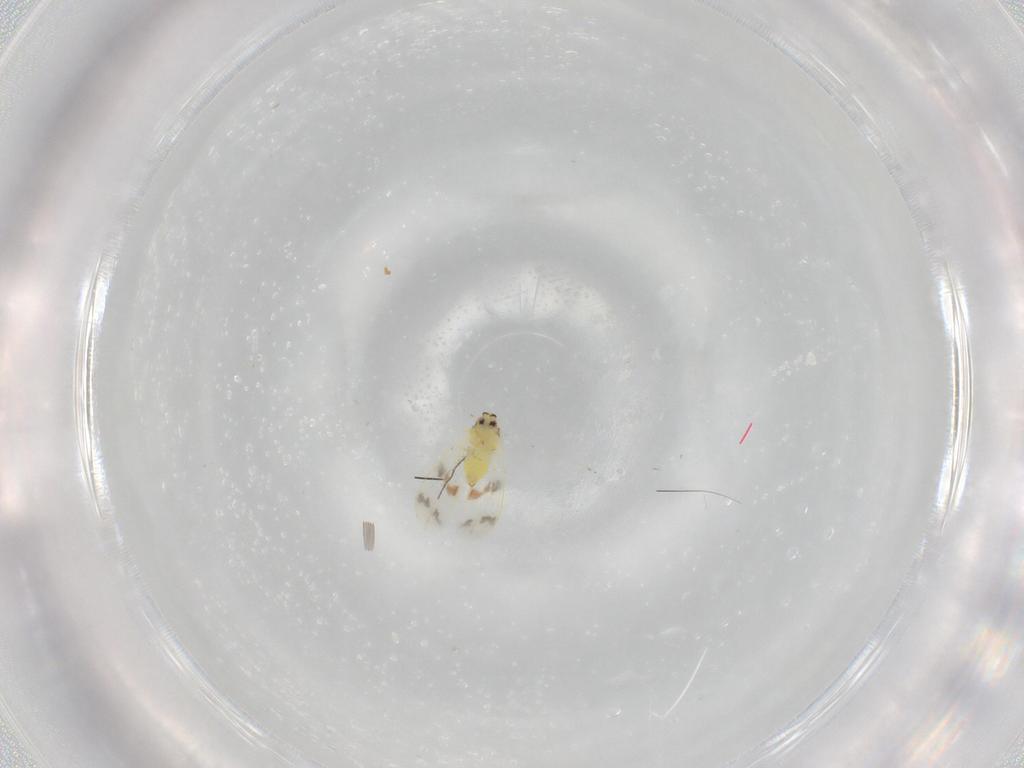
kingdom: Animalia
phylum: Arthropoda
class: Insecta
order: Hemiptera
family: Aleyrodidae
